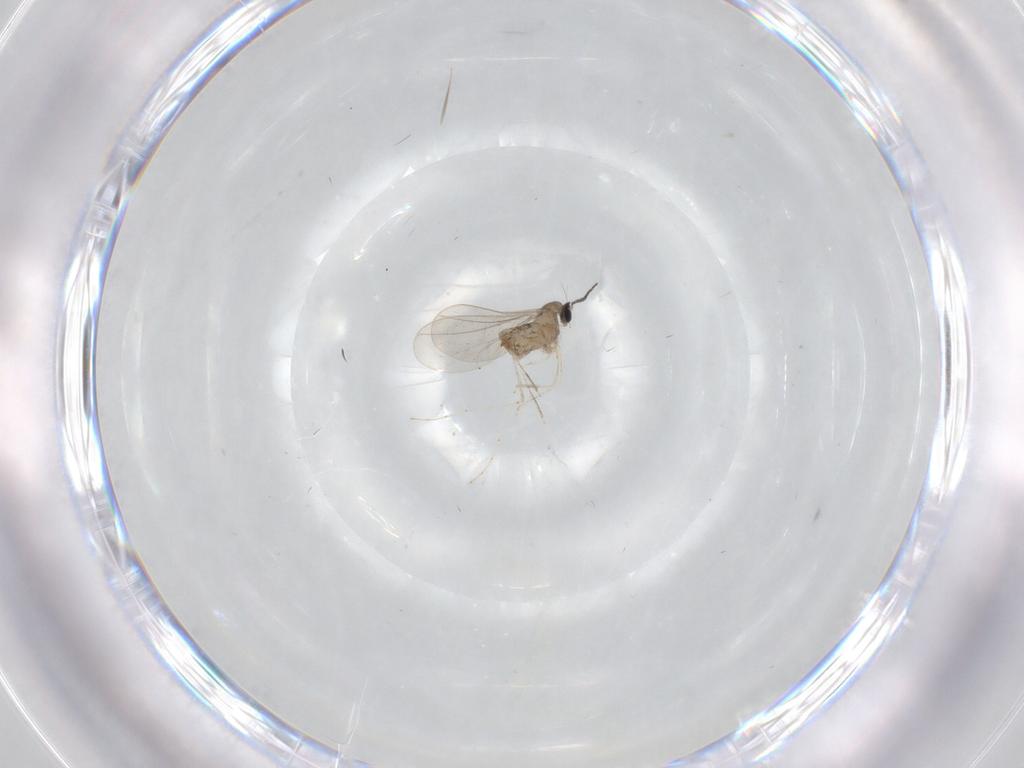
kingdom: Animalia
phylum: Arthropoda
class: Insecta
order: Diptera
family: Cecidomyiidae
